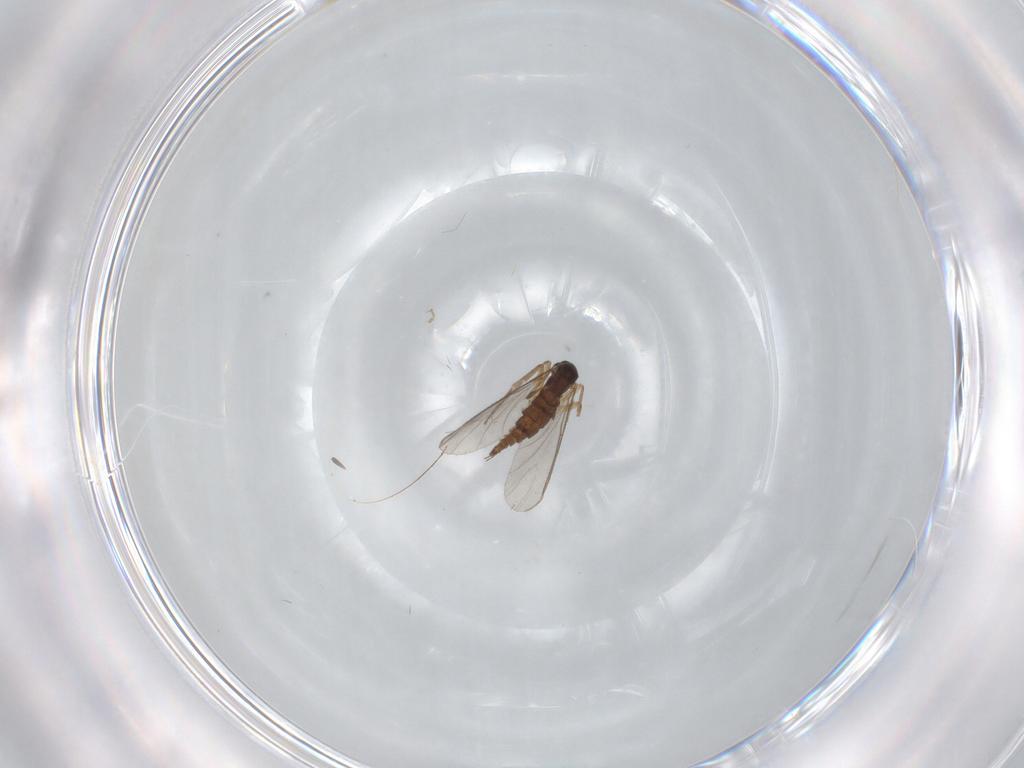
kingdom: Animalia
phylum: Arthropoda
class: Insecta
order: Diptera
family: Sciaridae
